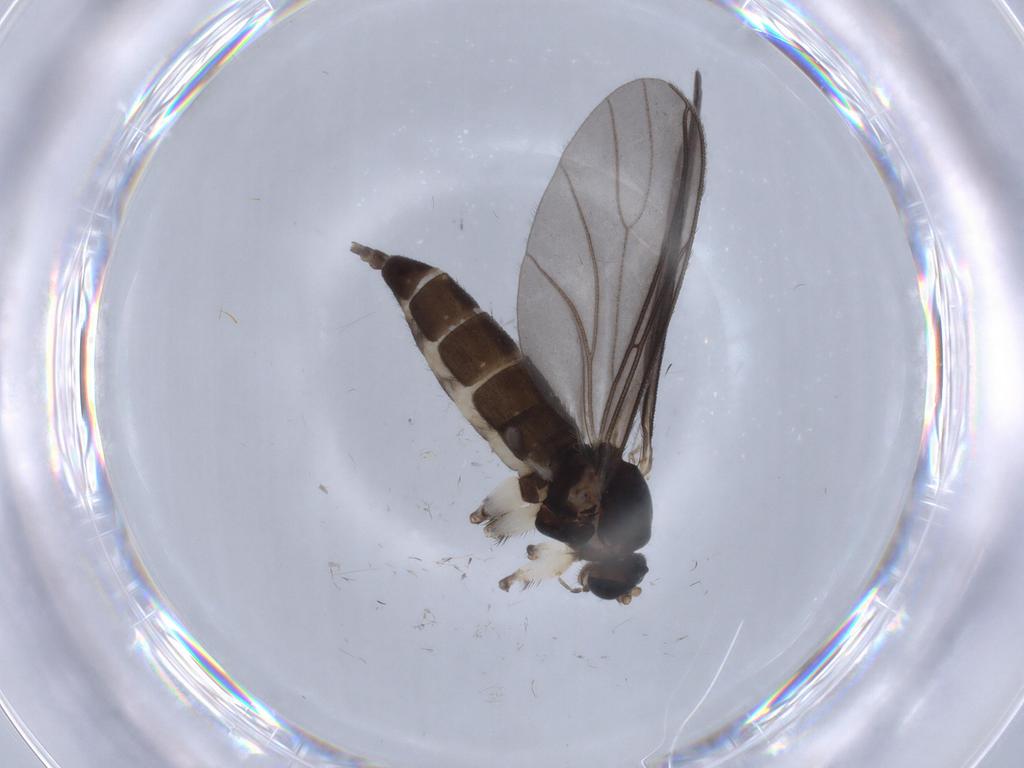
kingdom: Animalia
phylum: Arthropoda
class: Insecta
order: Diptera
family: Sciaridae
